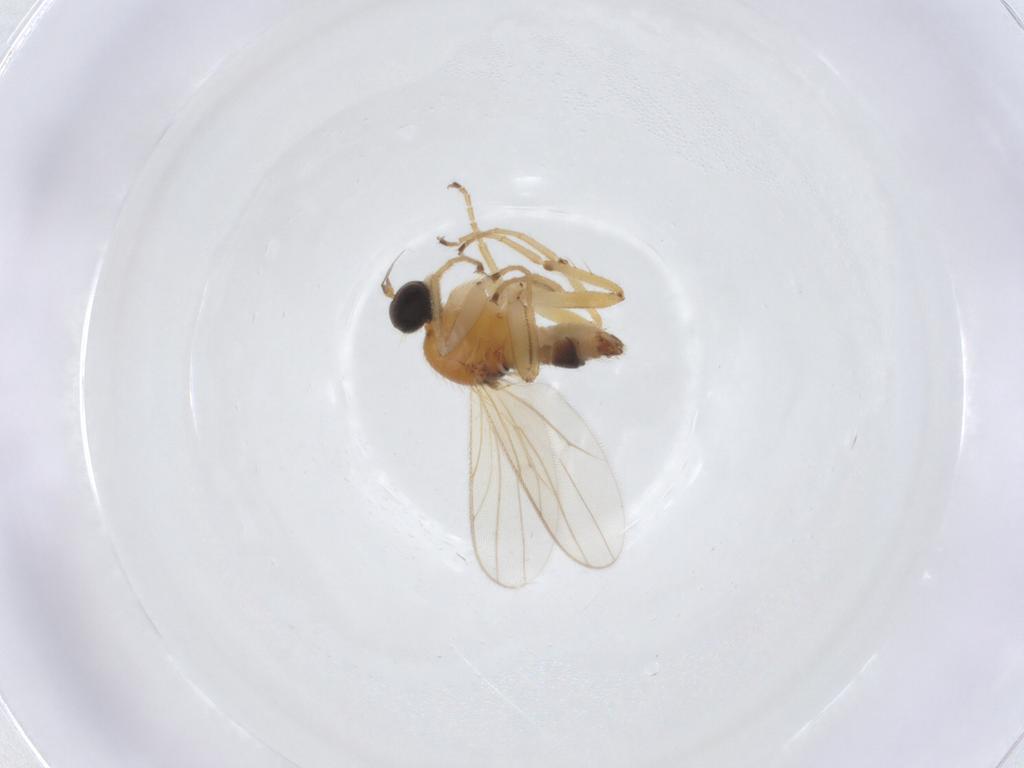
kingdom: Animalia
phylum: Arthropoda
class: Insecta
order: Diptera
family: Hybotidae
